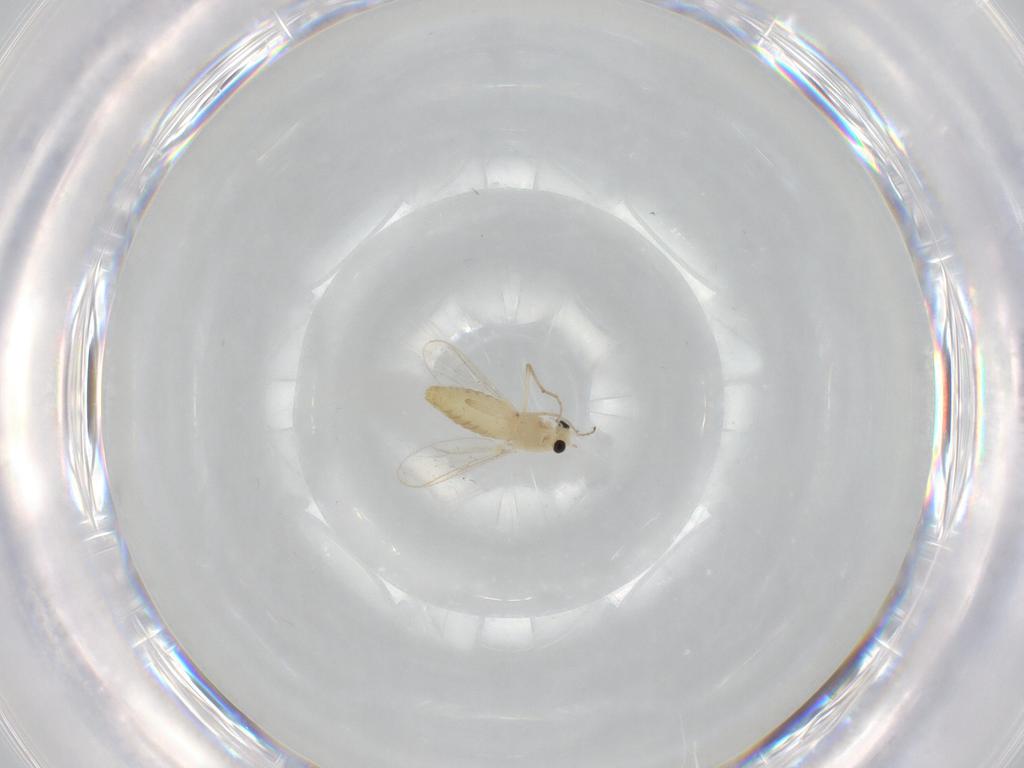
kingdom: Animalia
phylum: Arthropoda
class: Insecta
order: Diptera
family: Chironomidae
